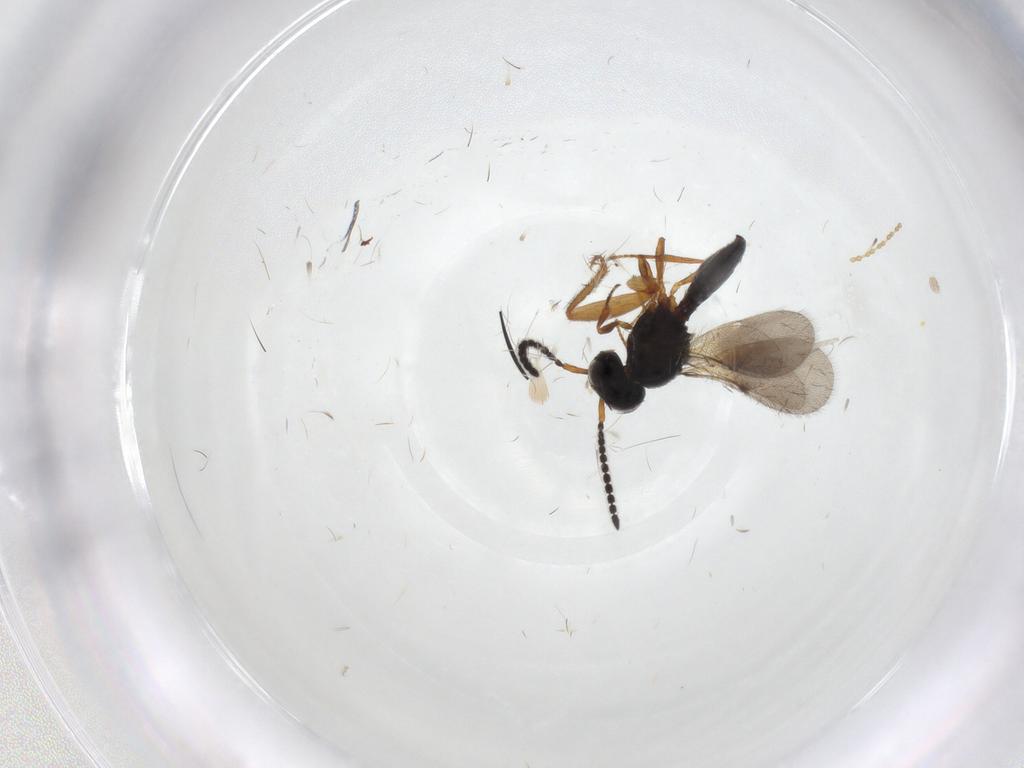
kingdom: Animalia
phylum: Arthropoda
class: Insecta
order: Hymenoptera
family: Scelionidae
